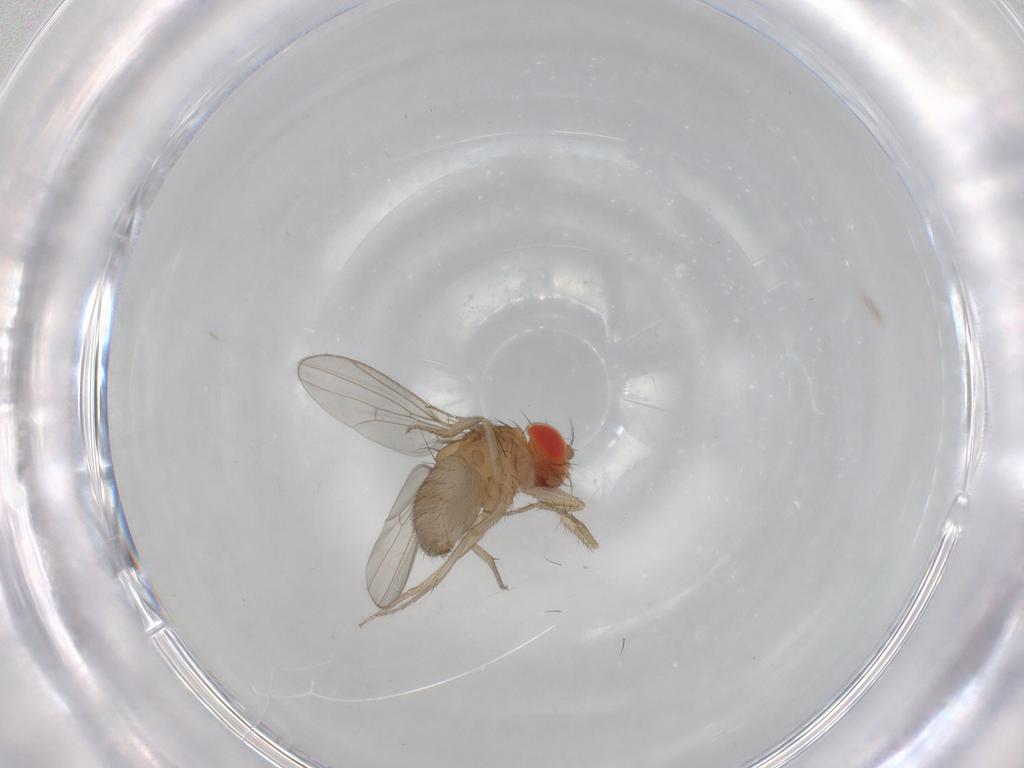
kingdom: Animalia
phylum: Arthropoda
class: Insecta
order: Diptera
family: Drosophilidae
